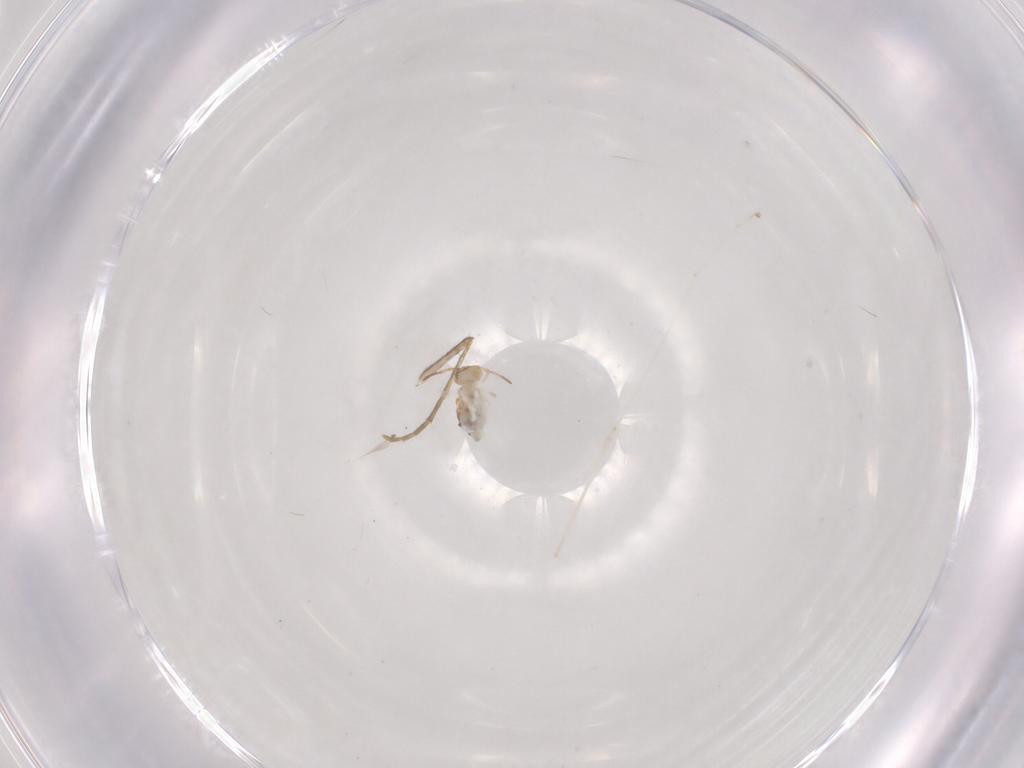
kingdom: Animalia
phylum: Arthropoda
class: Collembola
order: Symphypleona
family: Bourletiellidae
